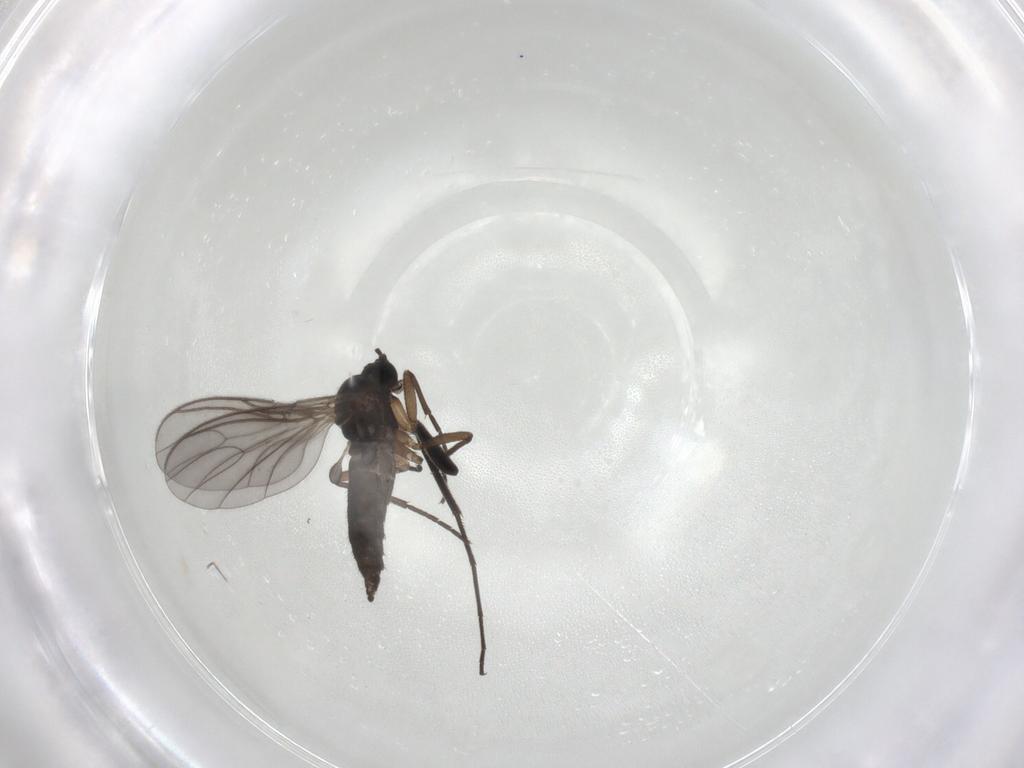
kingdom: Animalia
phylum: Arthropoda
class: Insecta
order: Diptera
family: Sciaridae
